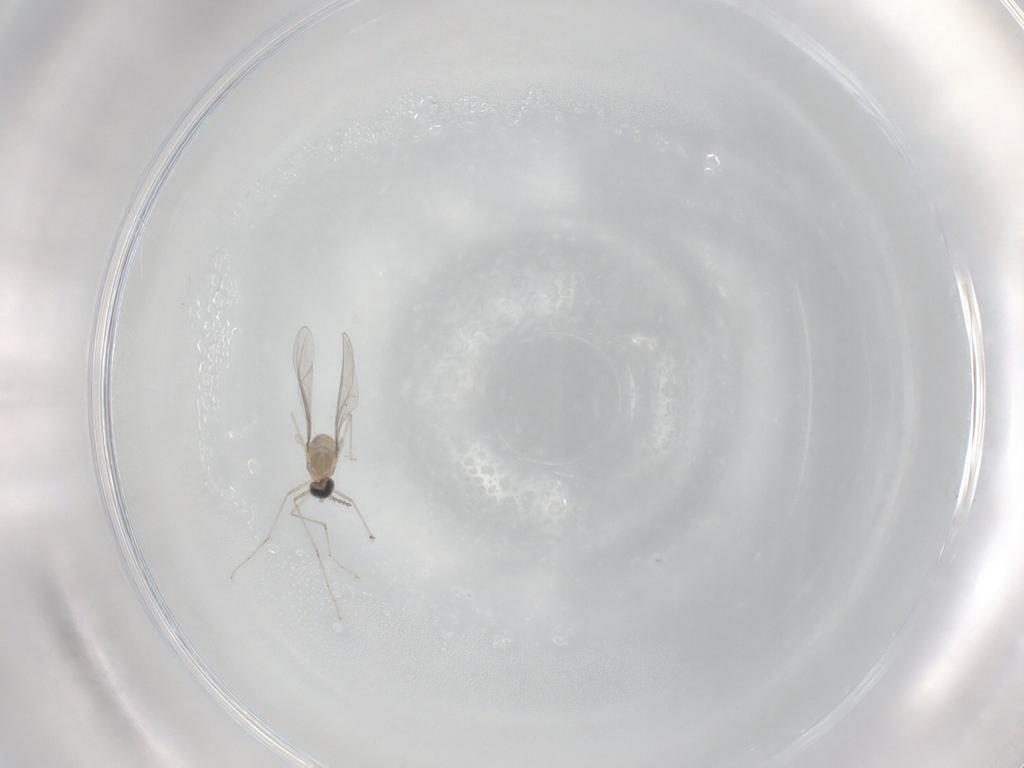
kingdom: Animalia
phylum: Arthropoda
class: Insecta
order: Diptera
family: Cecidomyiidae
